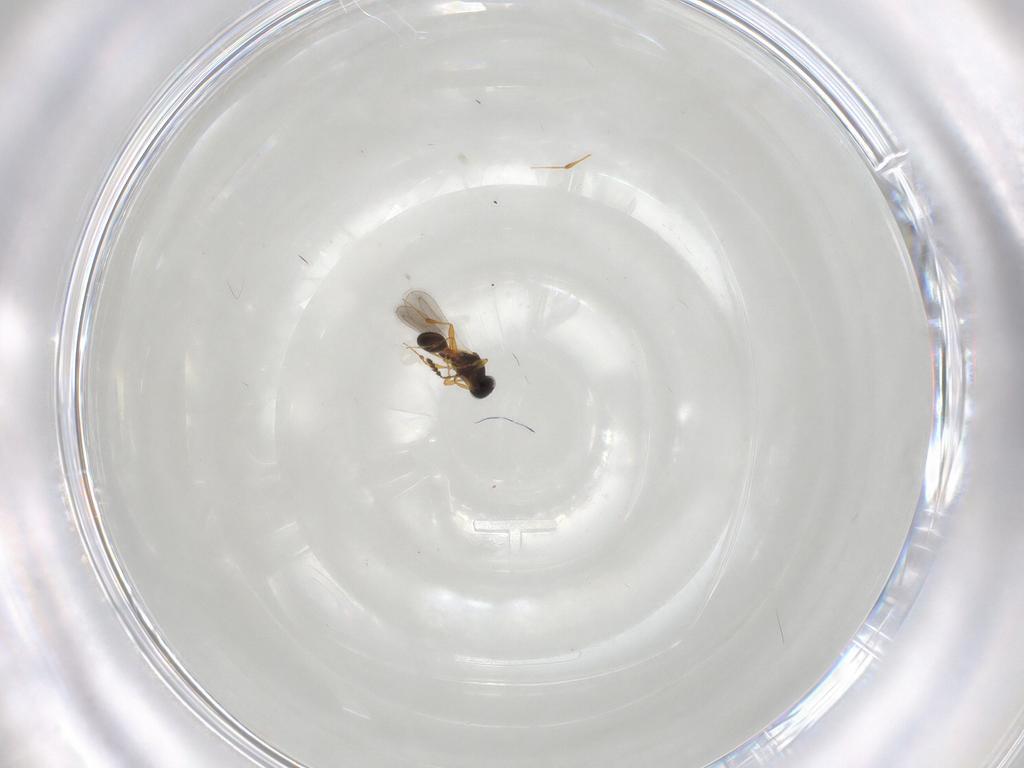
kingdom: Animalia
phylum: Arthropoda
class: Insecta
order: Hymenoptera
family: Platygastridae
